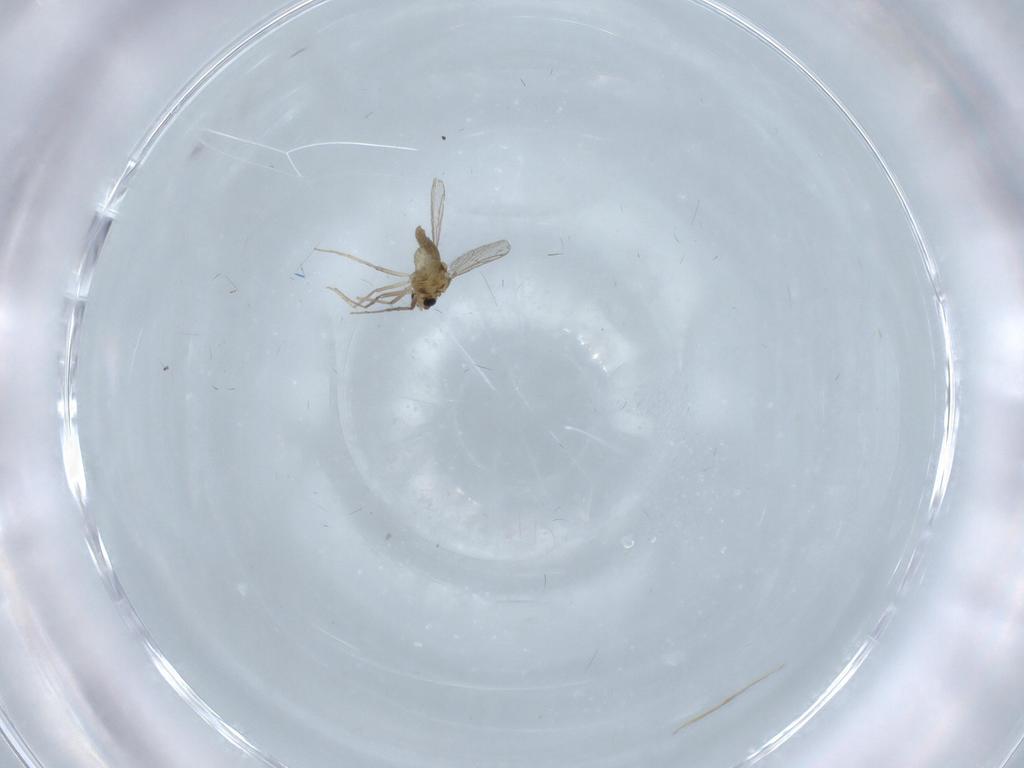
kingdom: Animalia
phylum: Arthropoda
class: Insecta
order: Diptera
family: Chironomidae
